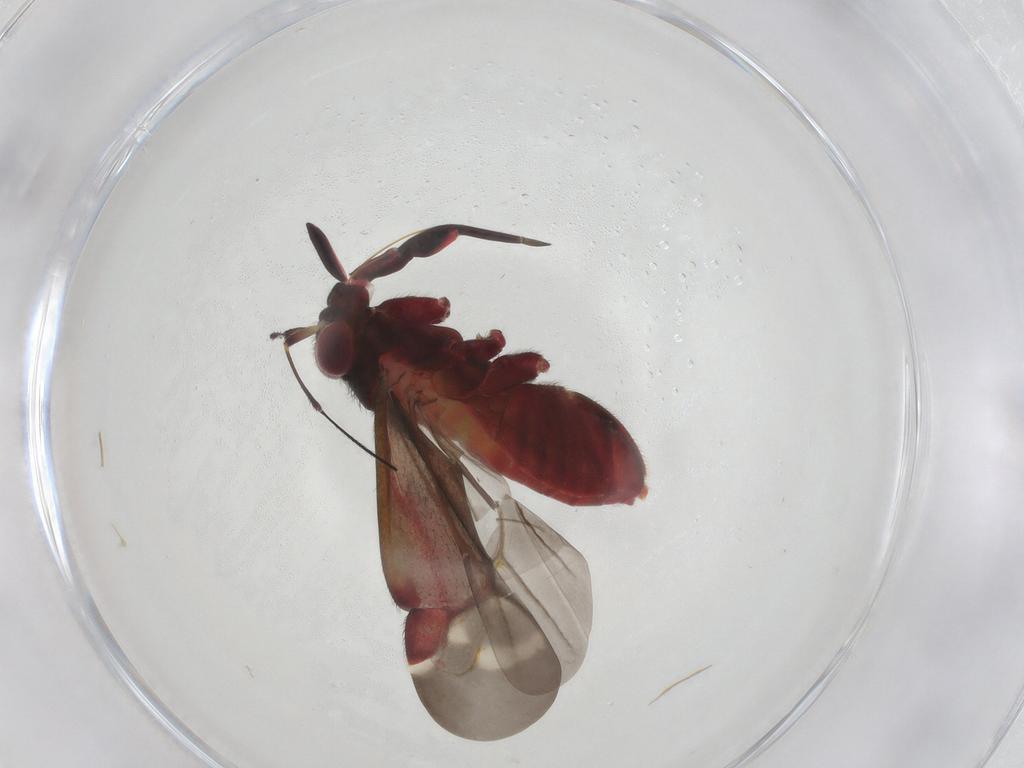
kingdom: Animalia
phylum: Arthropoda
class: Insecta
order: Hemiptera
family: Miridae
